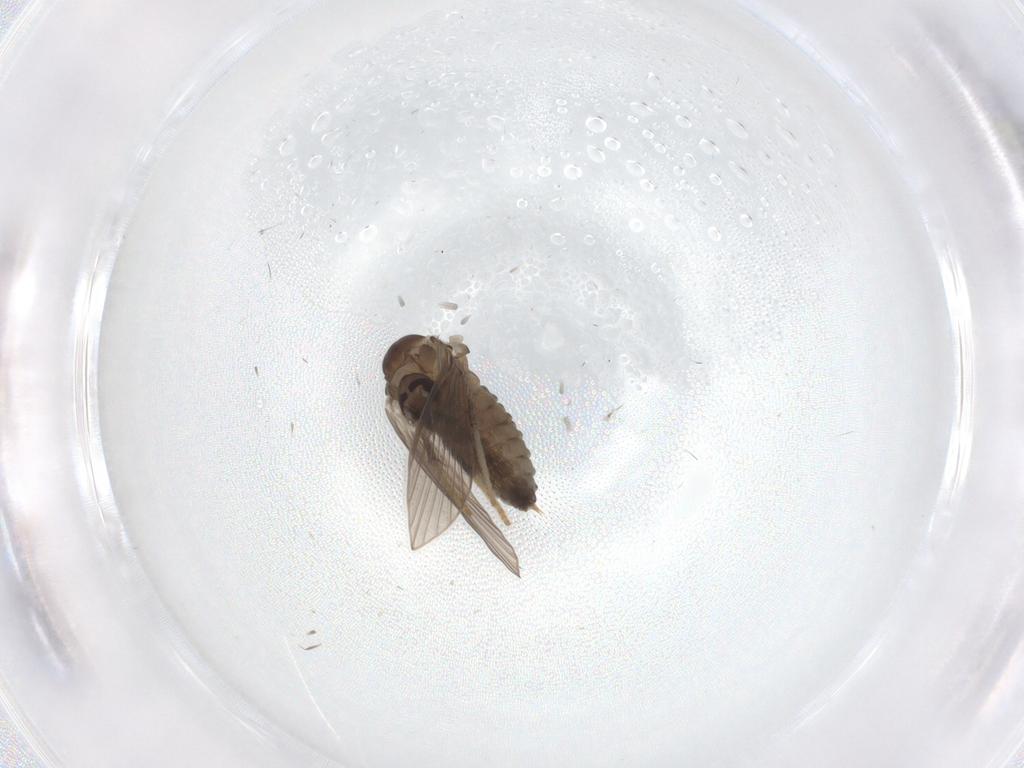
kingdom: Animalia
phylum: Arthropoda
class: Insecta
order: Diptera
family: Psychodidae
